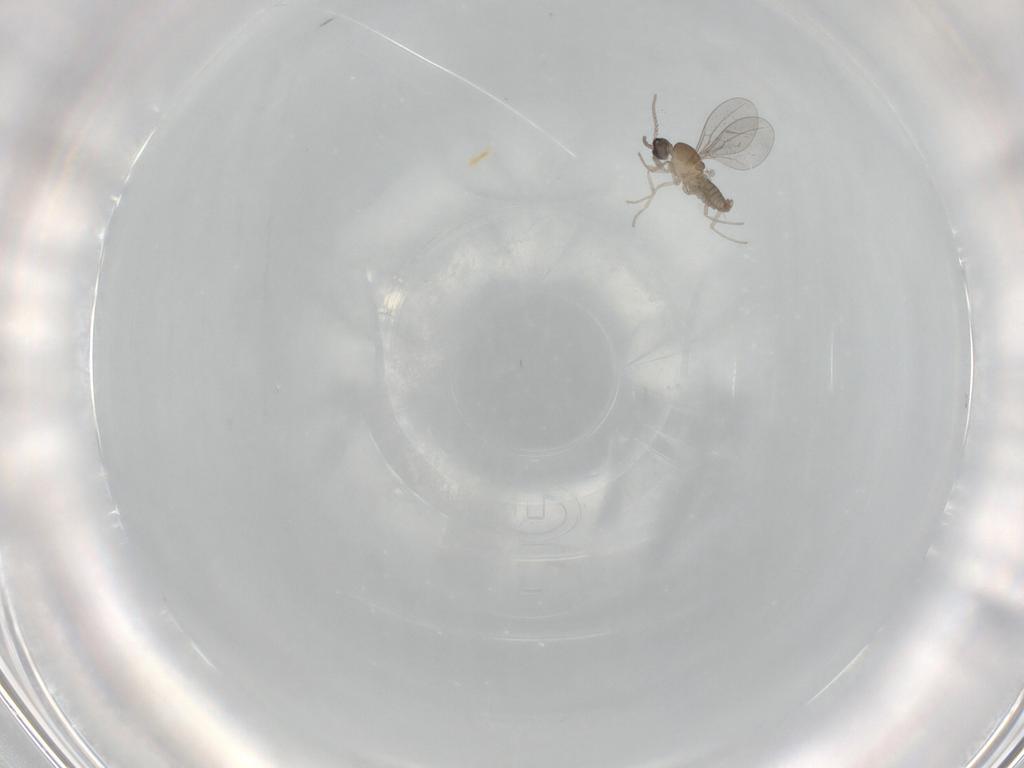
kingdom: Animalia
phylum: Arthropoda
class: Insecta
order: Diptera
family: Cecidomyiidae
